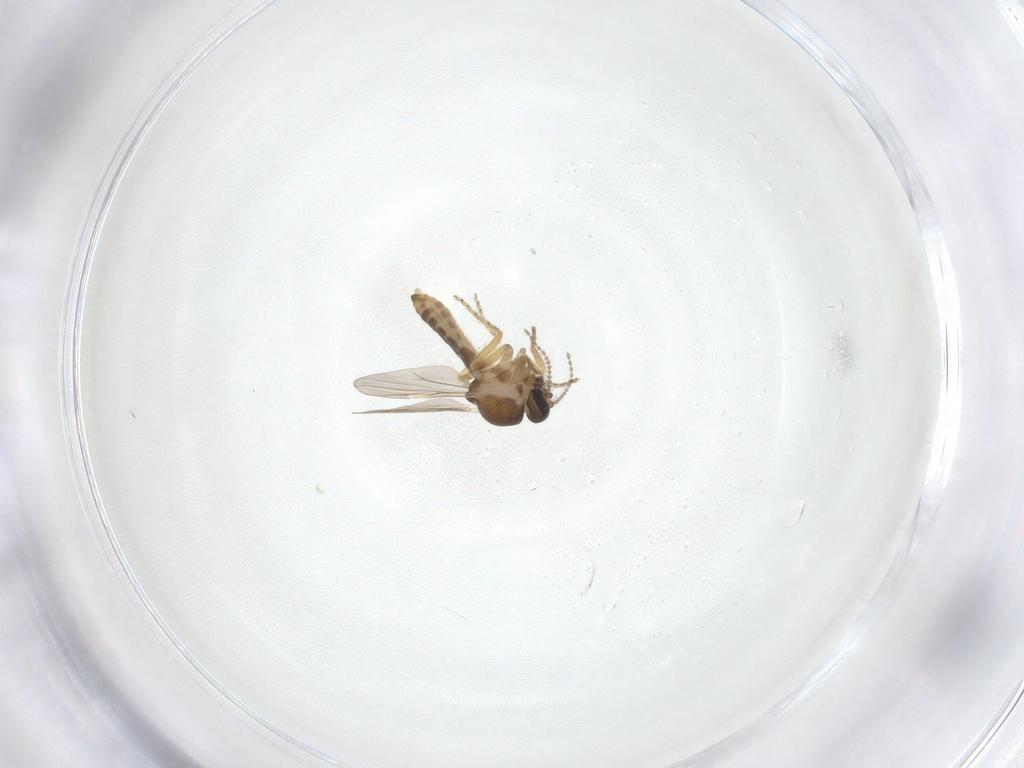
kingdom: Animalia
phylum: Arthropoda
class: Insecta
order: Diptera
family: Ceratopogonidae
